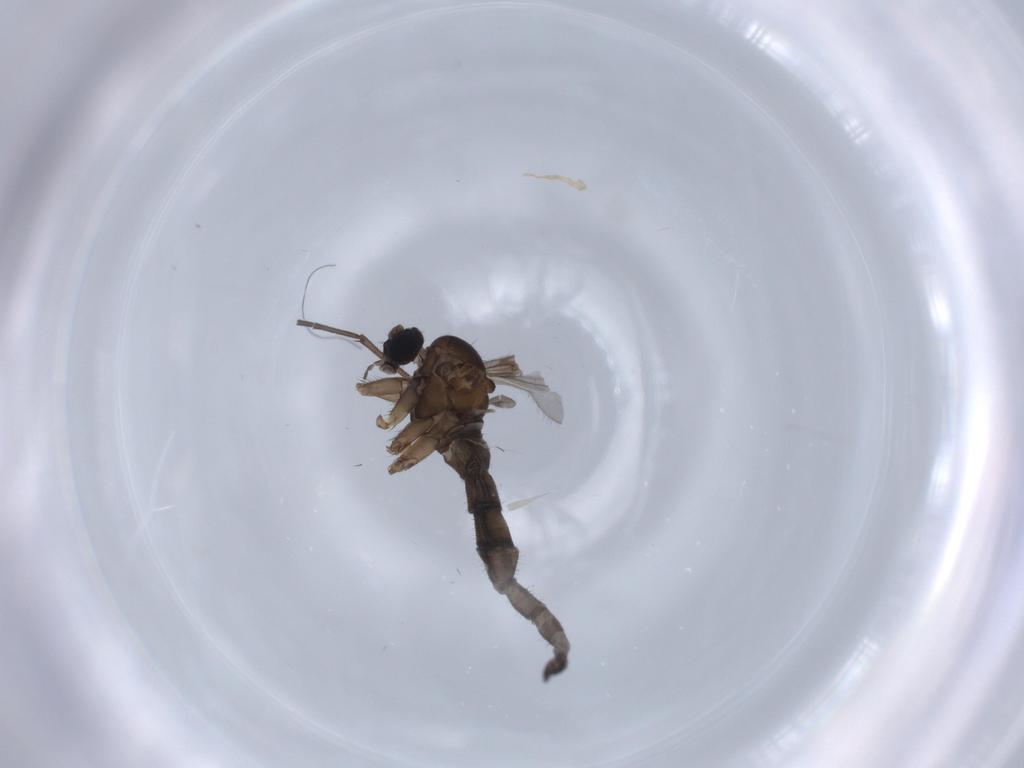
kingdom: Animalia
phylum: Arthropoda
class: Insecta
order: Diptera
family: Sciaridae
